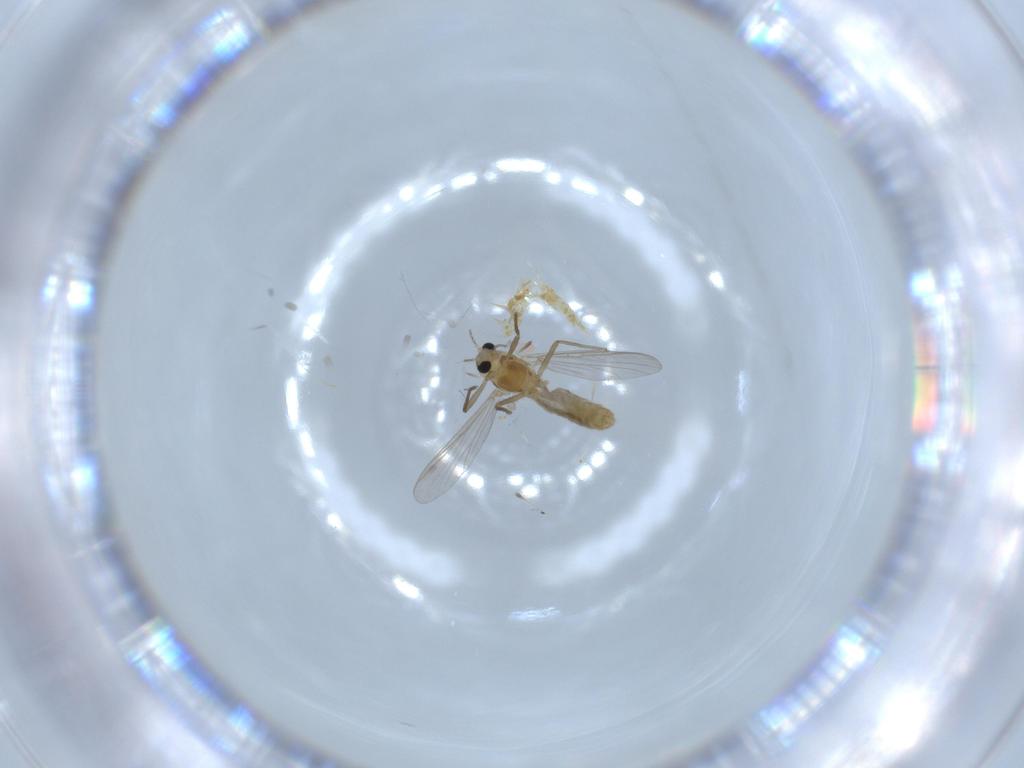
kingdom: Animalia
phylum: Arthropoda
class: Insecta
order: Diptera
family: Chironomidae
